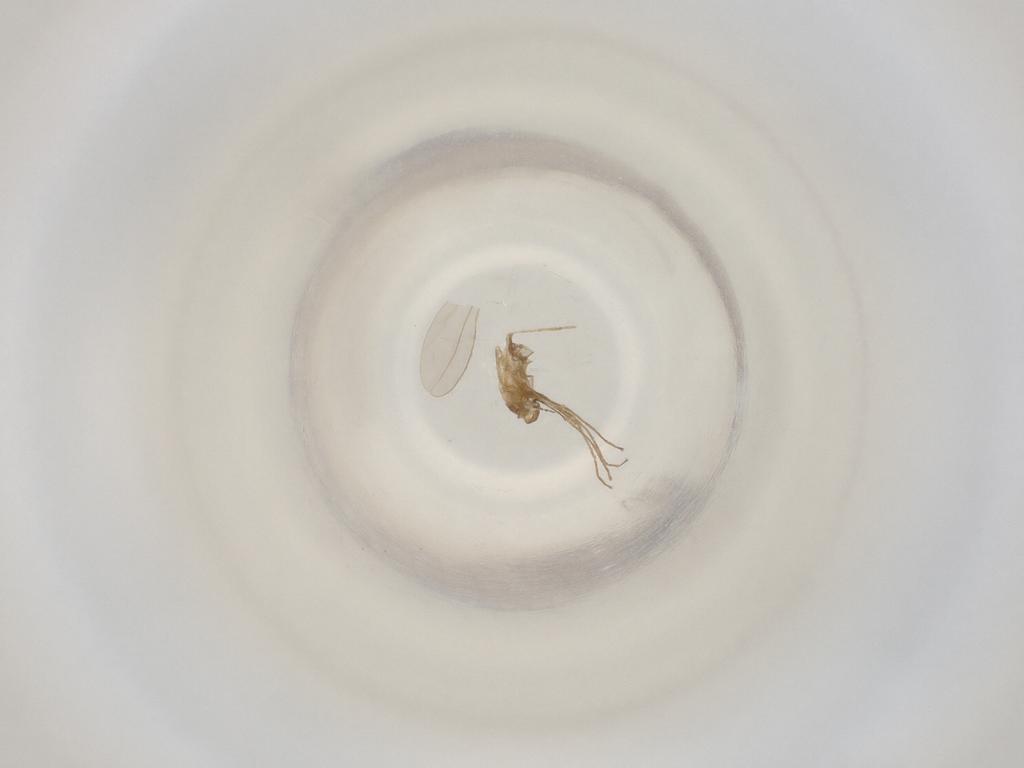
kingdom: Animalia
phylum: Arthropoda
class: Insecta
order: Diptera
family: Cecidomyiidae
